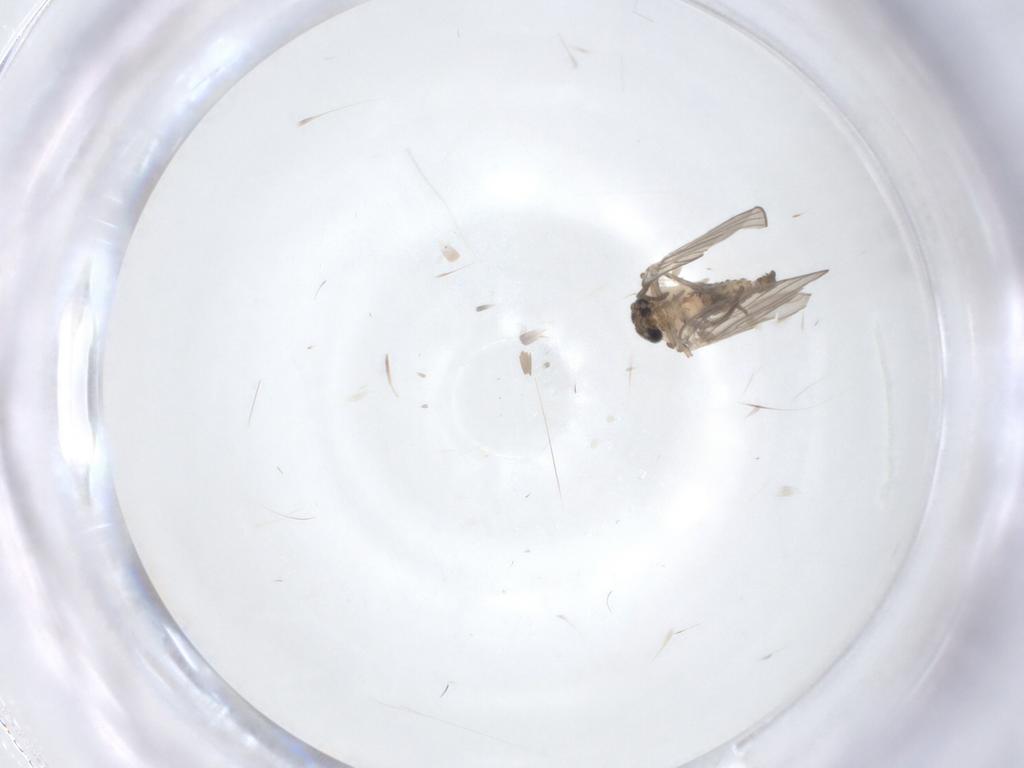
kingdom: Animalia
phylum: Arthropoda
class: Insecta
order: Diptera
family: Psychodidae
